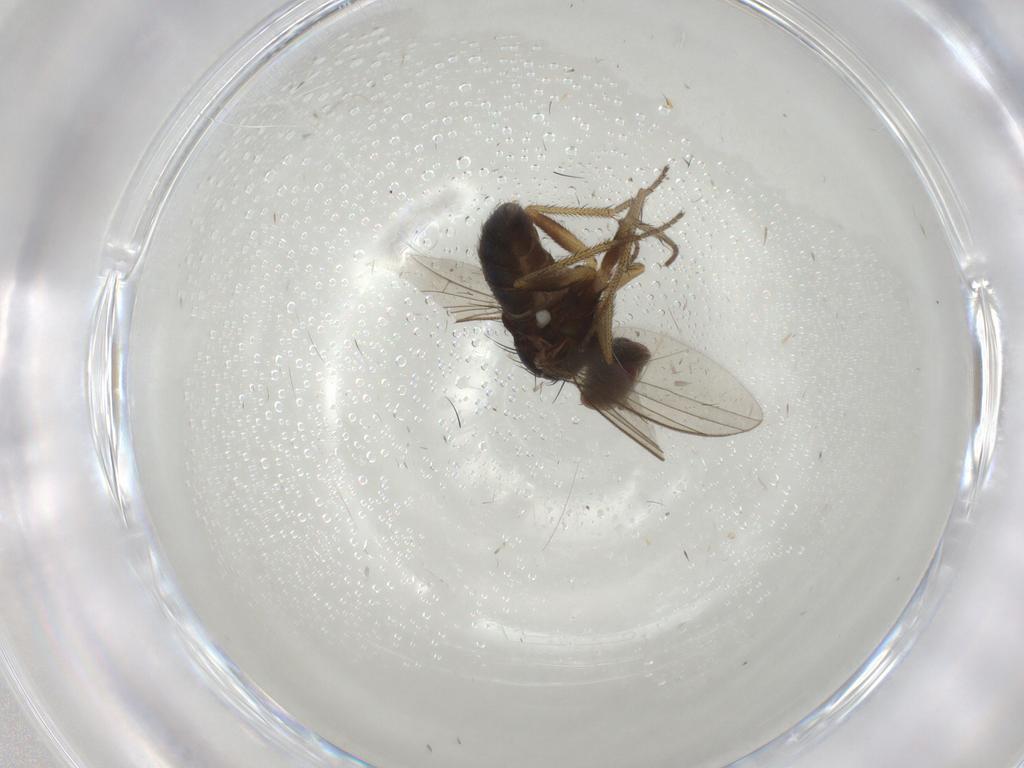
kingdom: Animalia
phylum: Arthropoda
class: Insecta
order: Diptera
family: Dolichopodidae
